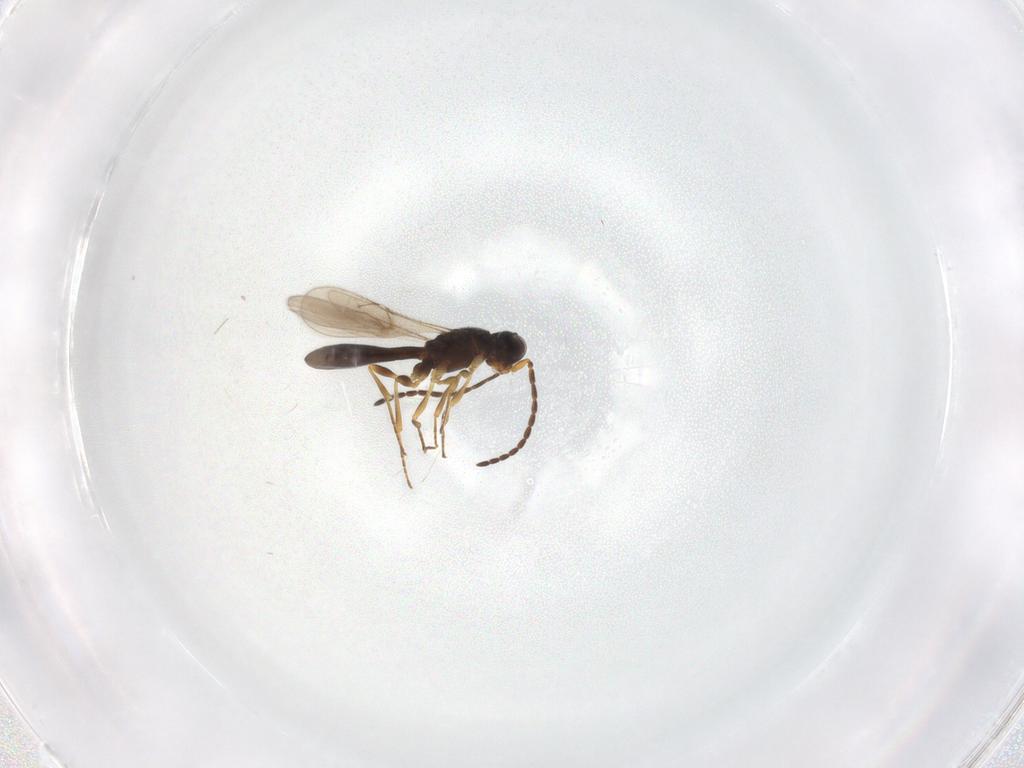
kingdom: Animalia
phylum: Arthropoda
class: Insecta
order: Hymenoptera
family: Scelionidae
